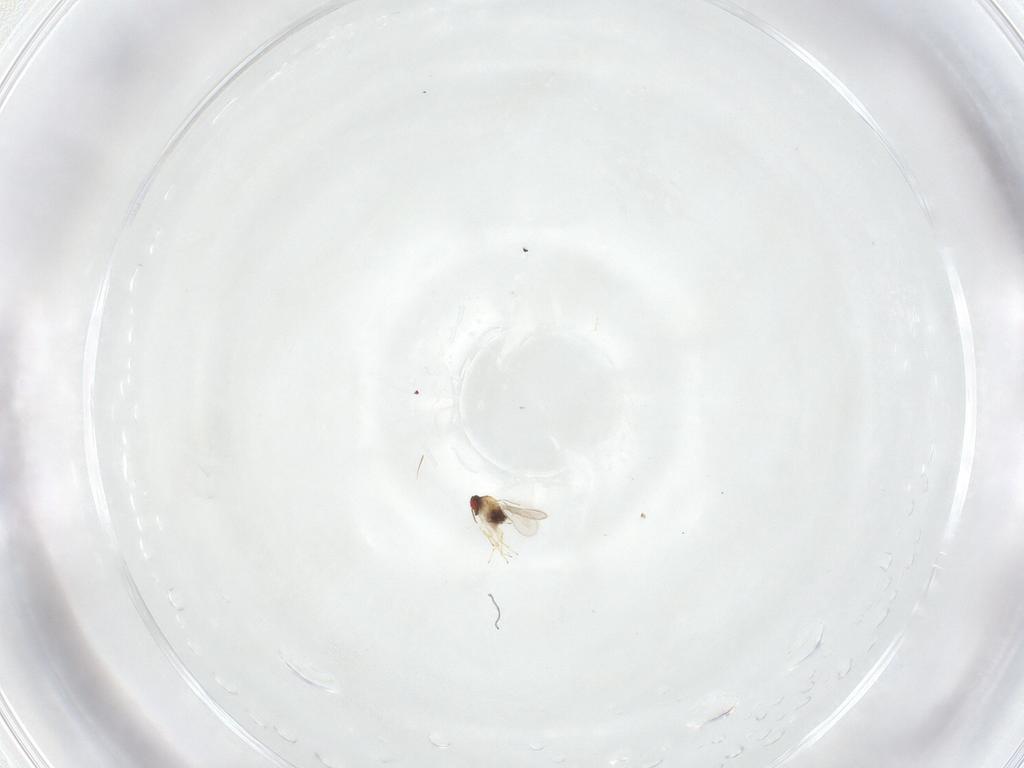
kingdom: Animalia
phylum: Arthropoda
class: Insecta
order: Hymenoptera
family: Aphelinidae
